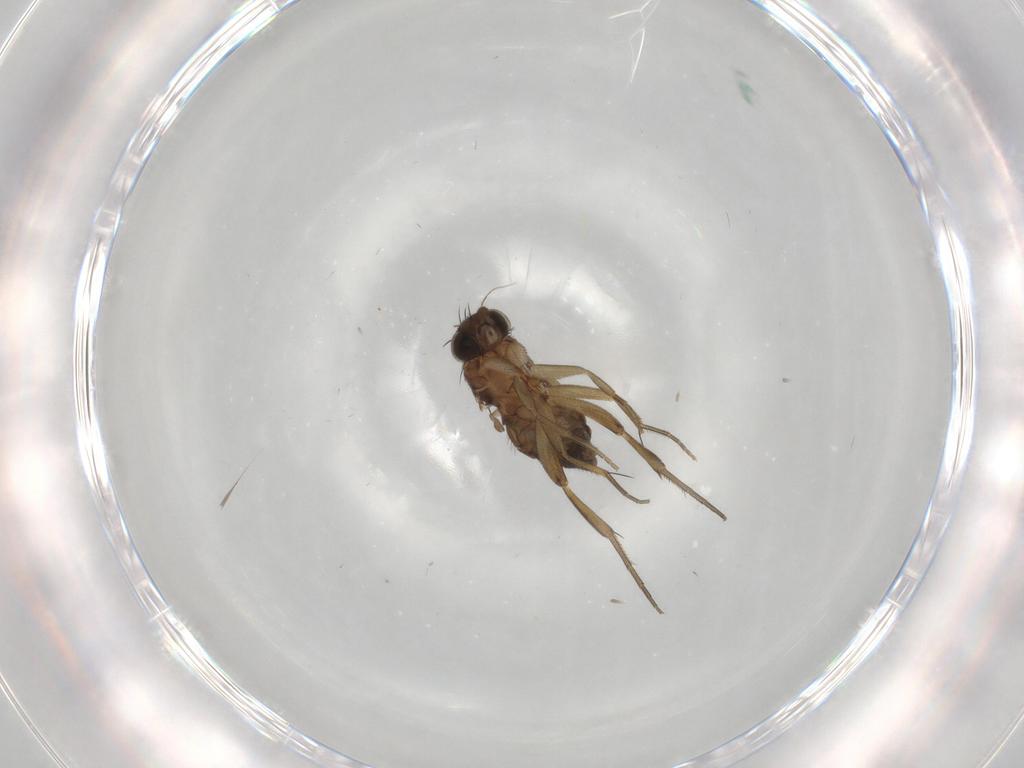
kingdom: Animalia
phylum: Arthropoda
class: Insecta
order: Diptera
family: Phoridae
